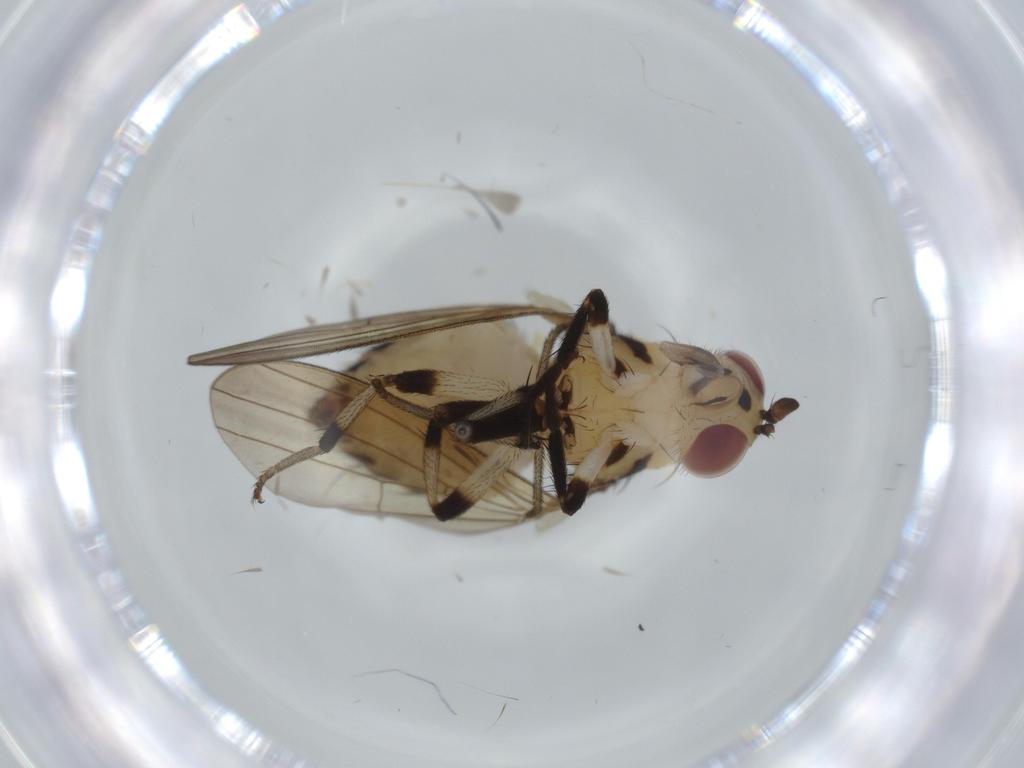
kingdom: Animalia
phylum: Arthropoda
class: Insecta
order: Diptera
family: Lauxaniidae
